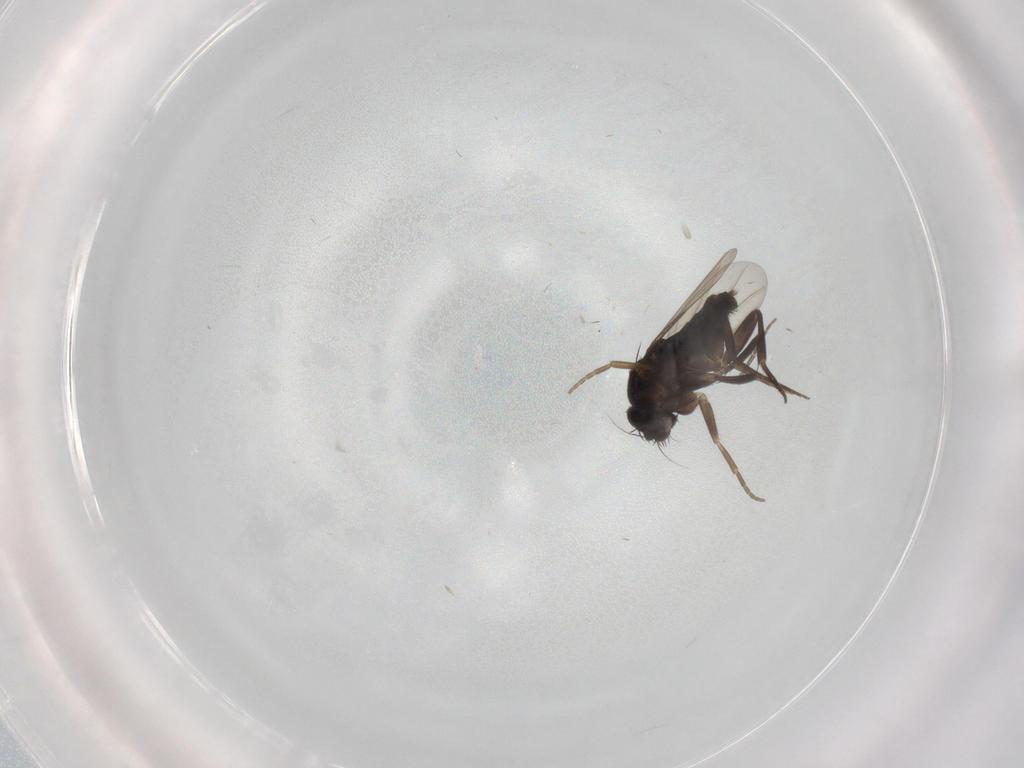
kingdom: Animalia
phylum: Arthropoda
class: Insecta
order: Diptera
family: Phoridae
